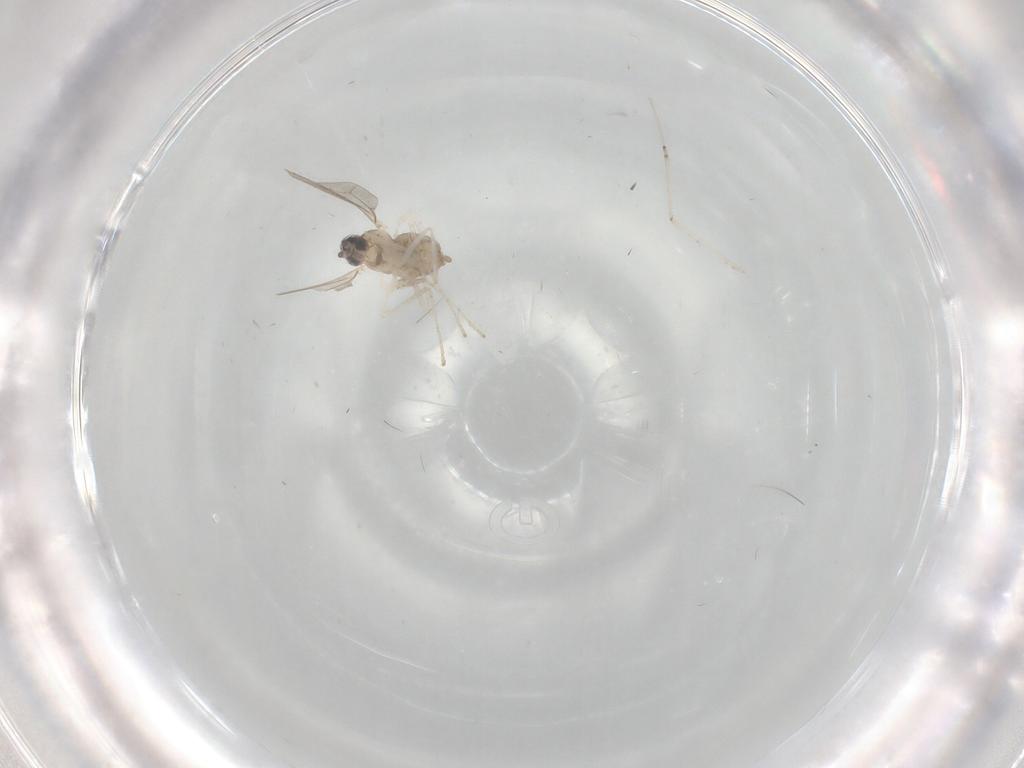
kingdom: Animalia
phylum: Arthropoda
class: Insecta
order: Diptera
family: Cecidomyiidae
